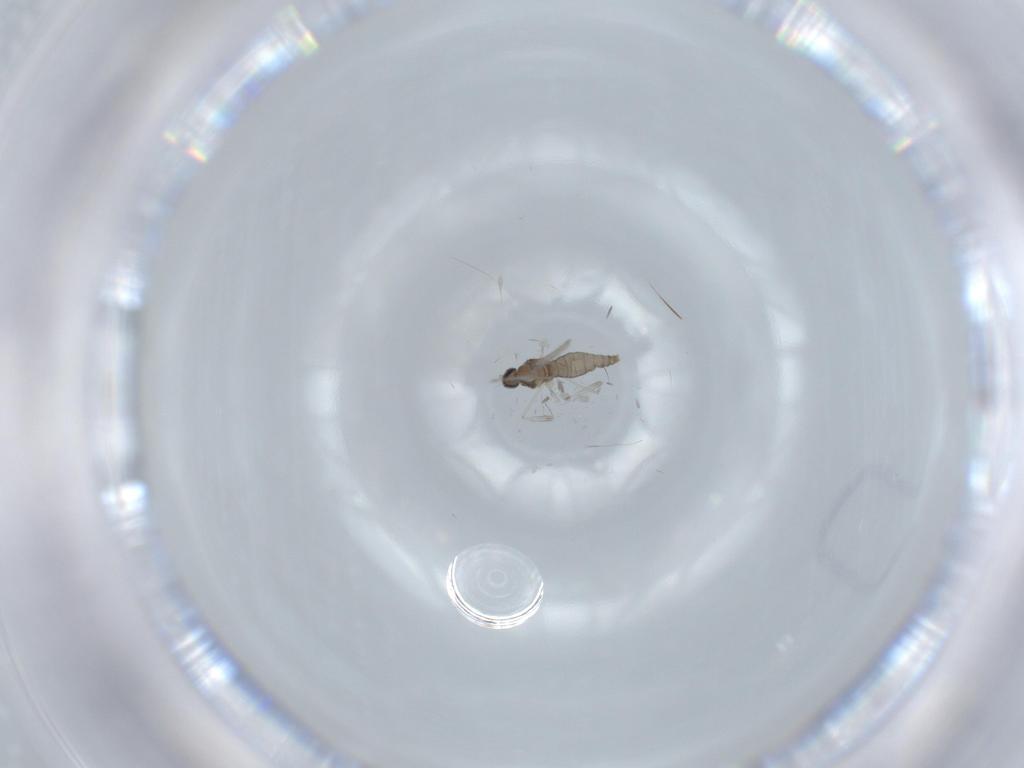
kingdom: Animalia
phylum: Arthropoda
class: Insecta
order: Diptera
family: Cecidomyiidae
